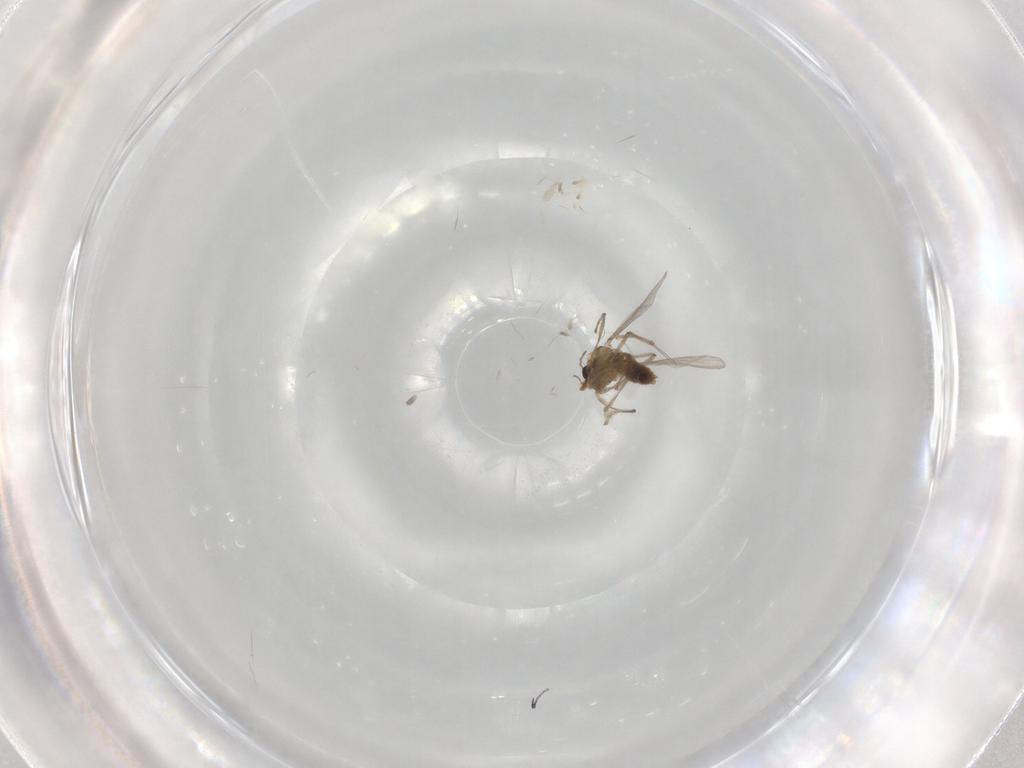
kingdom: Animalia
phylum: Arthropoda
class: Insecta
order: Diptera
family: Chironomidae
